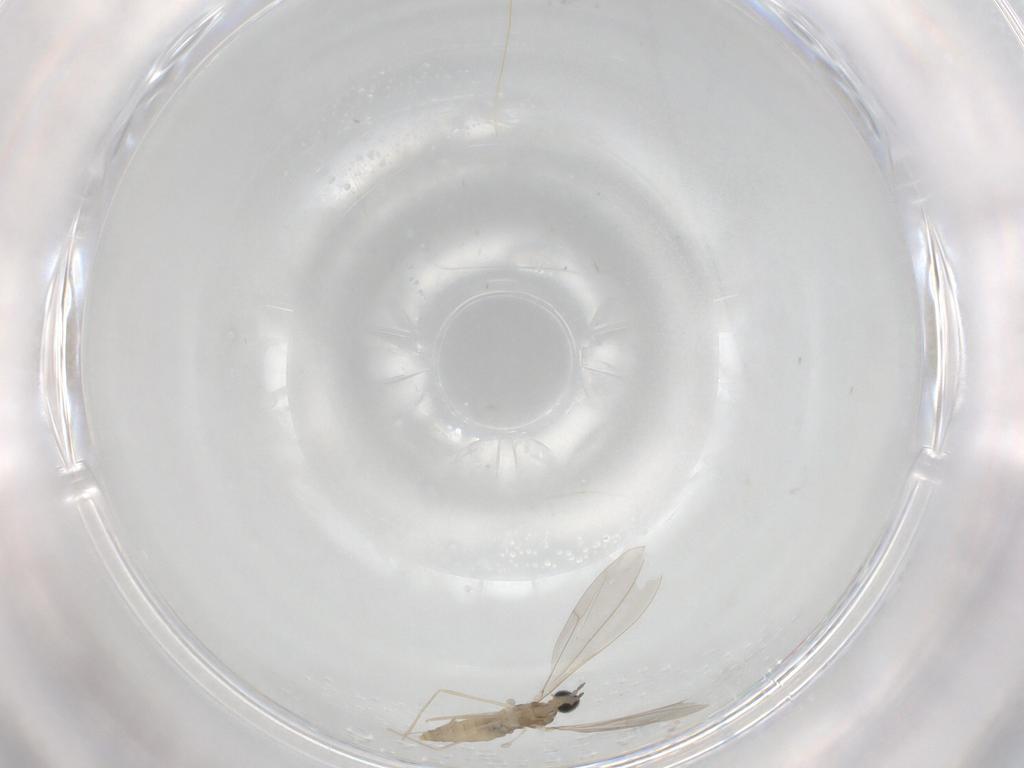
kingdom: Animalia
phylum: Arthropoda
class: Insecta
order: Diptera
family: Cecidomyiidae
